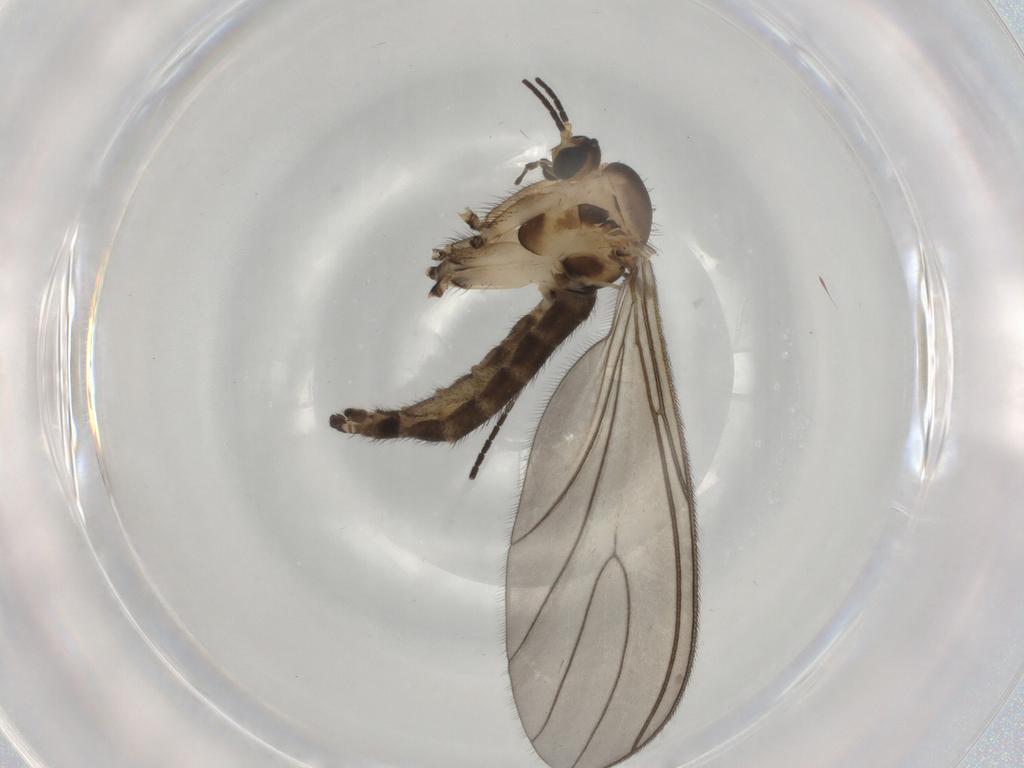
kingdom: Animalia
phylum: Arthropoda
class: Insecta
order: Diptera
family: Sciaridae
